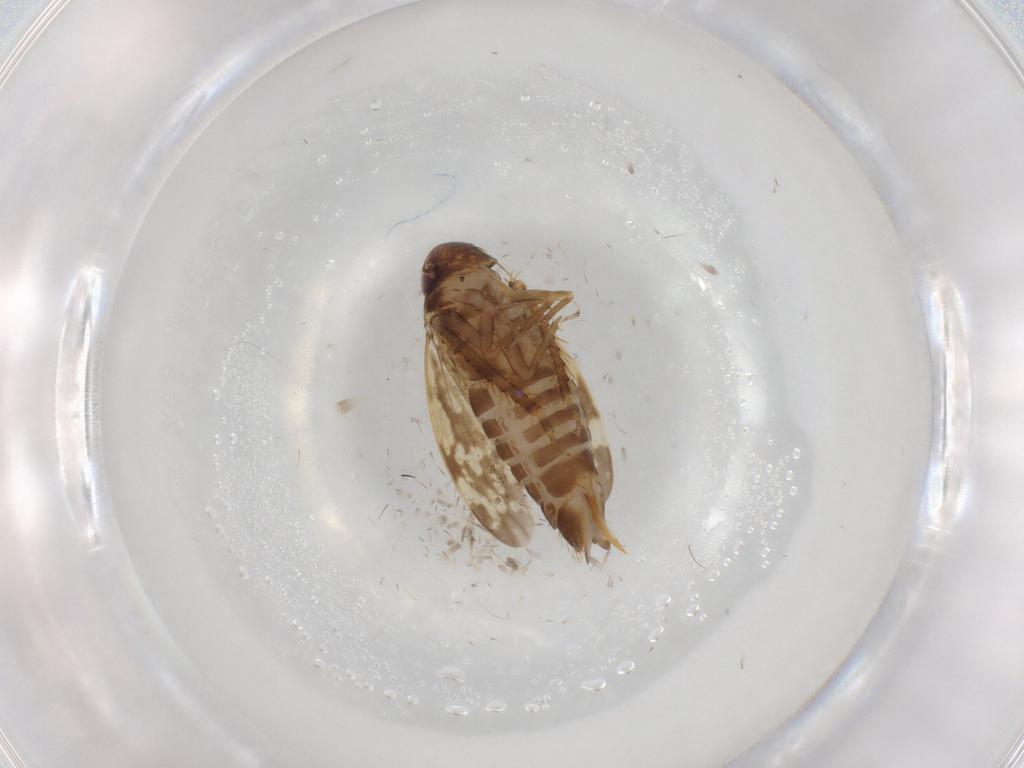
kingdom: Animalia
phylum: Arthropoda
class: Insecta
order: Hemiptera
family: Cicadellidae
